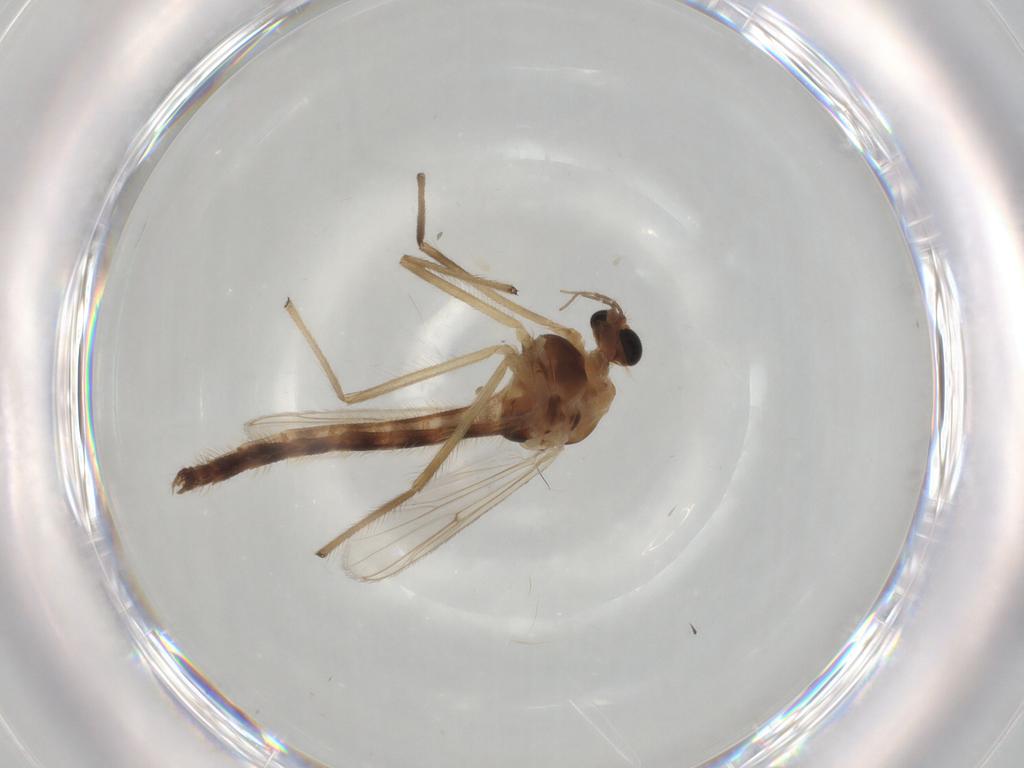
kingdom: Animalia
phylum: Arthropoda
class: Insecta
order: Diptera
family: Chironomidae
